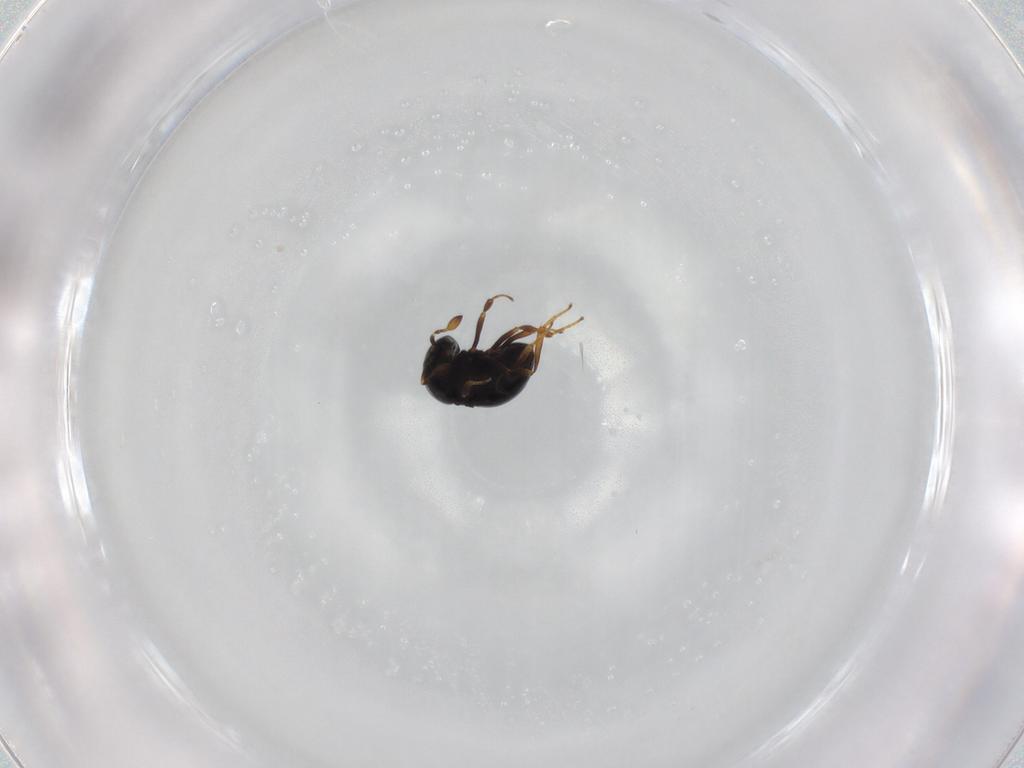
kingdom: Animalia
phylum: Arthropoda
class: Insecta
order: Hymenoptera
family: Scelionidae
